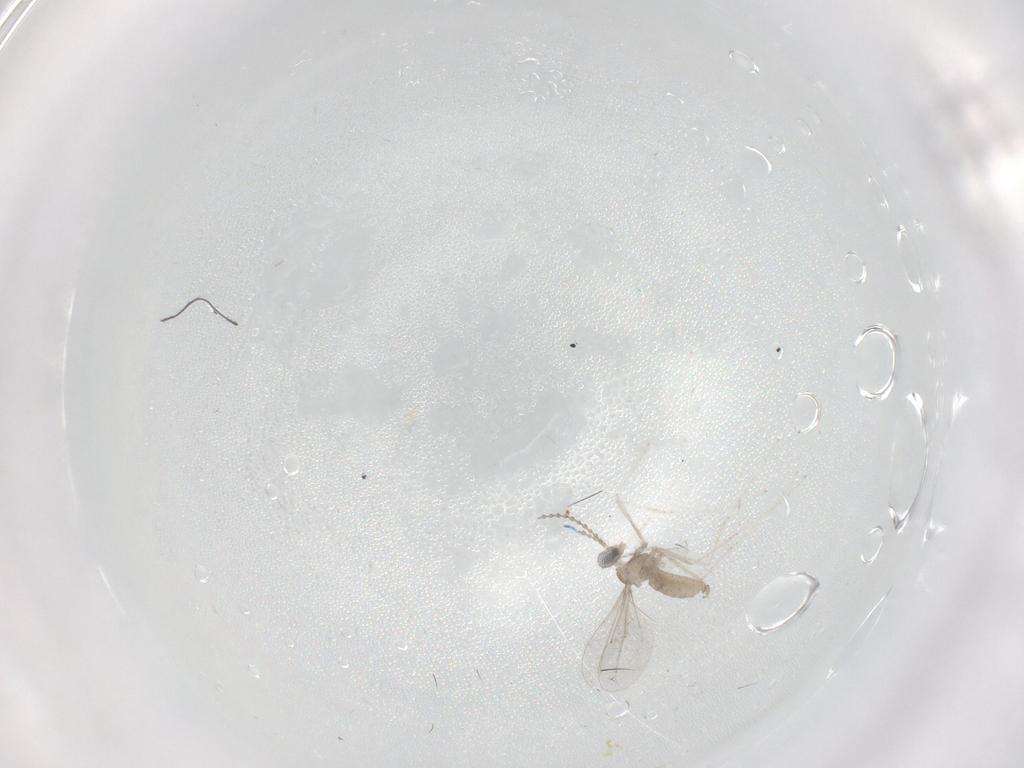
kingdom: Animalia
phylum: Arthropoda
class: Insecta
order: Diptera
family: Cecidomyiidae
